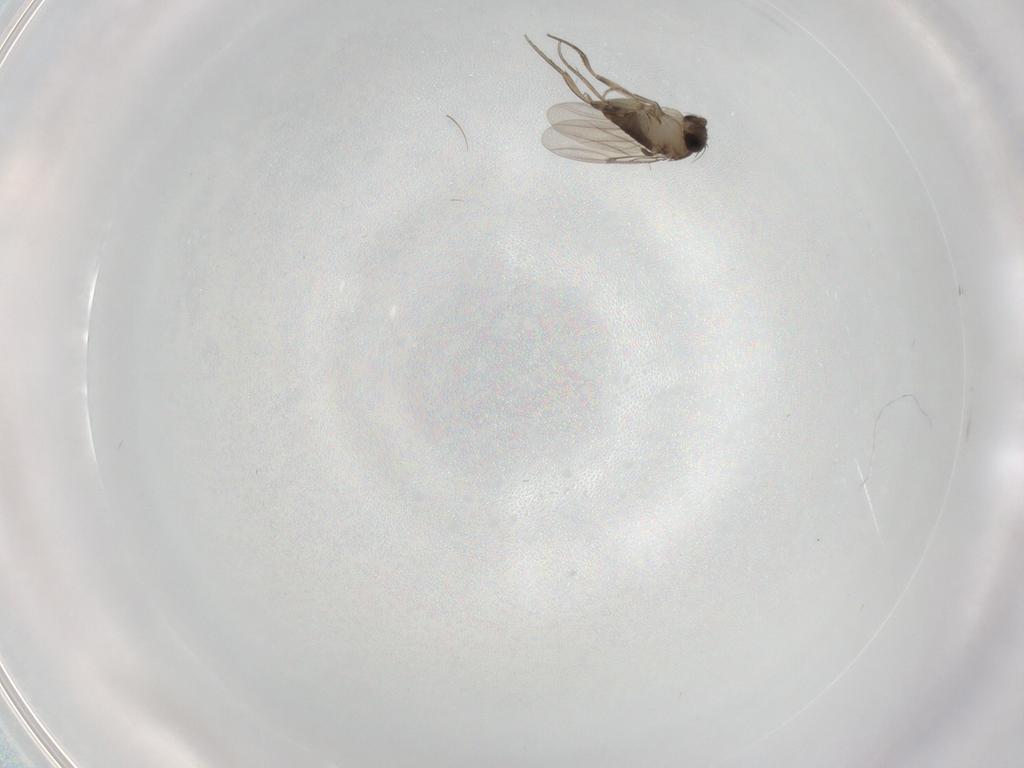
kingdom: Animalia
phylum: Arthropoda
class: Insecta
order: Diptera
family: Phoridae
